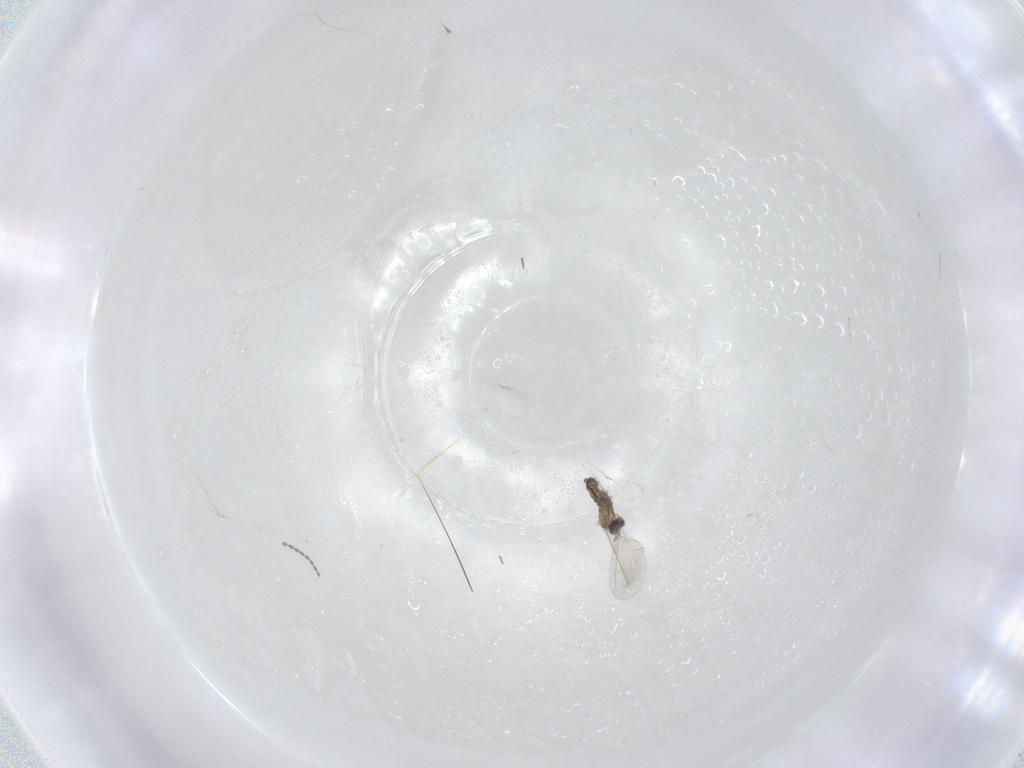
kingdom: Animalia
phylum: Arthropoda
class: Insecta
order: Diptera
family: Cecidomyiidae
